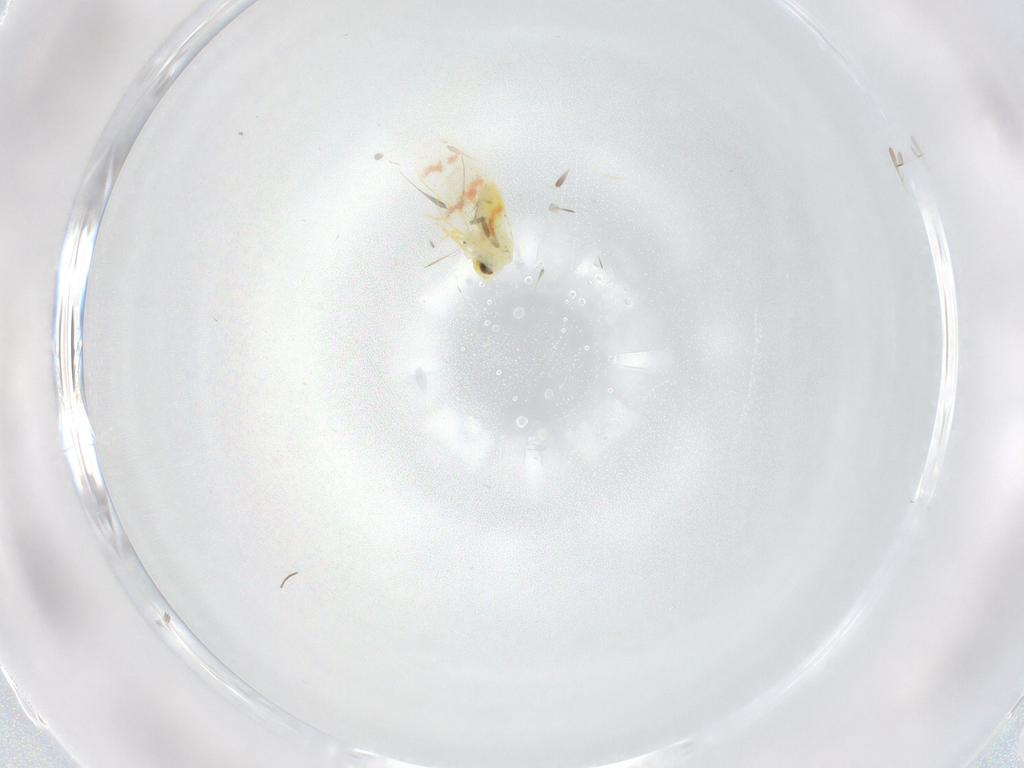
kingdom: Animalia
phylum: Arthropoda
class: Insecta
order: Hemiptera
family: Aleyrodidae
